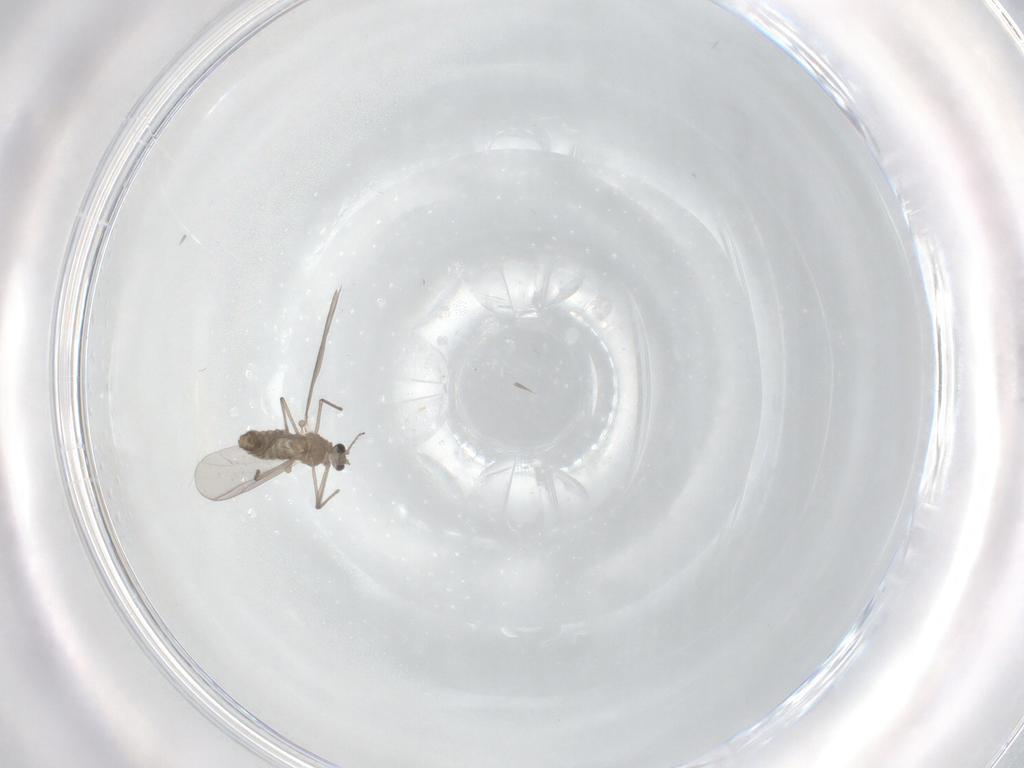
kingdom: Animalia
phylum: Arthropoda
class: Insecta
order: Diptera
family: Chironomidae
